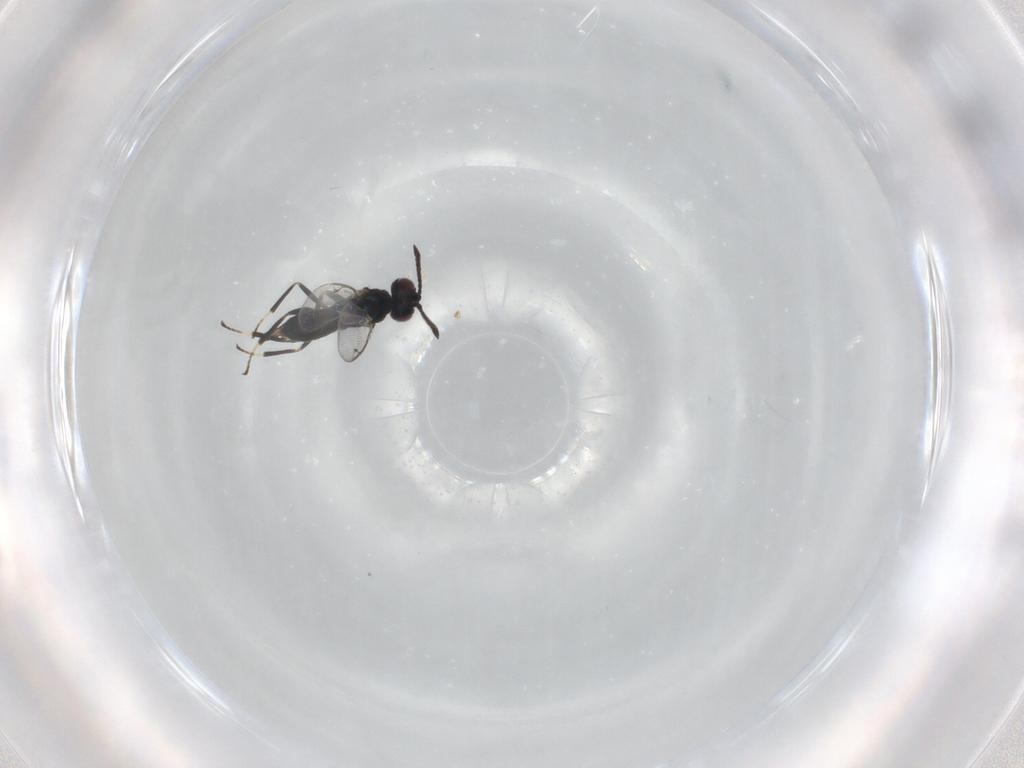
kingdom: Animalia
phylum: Arthropoda
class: Insecta
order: Hymenoptera
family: Eupelmidae
